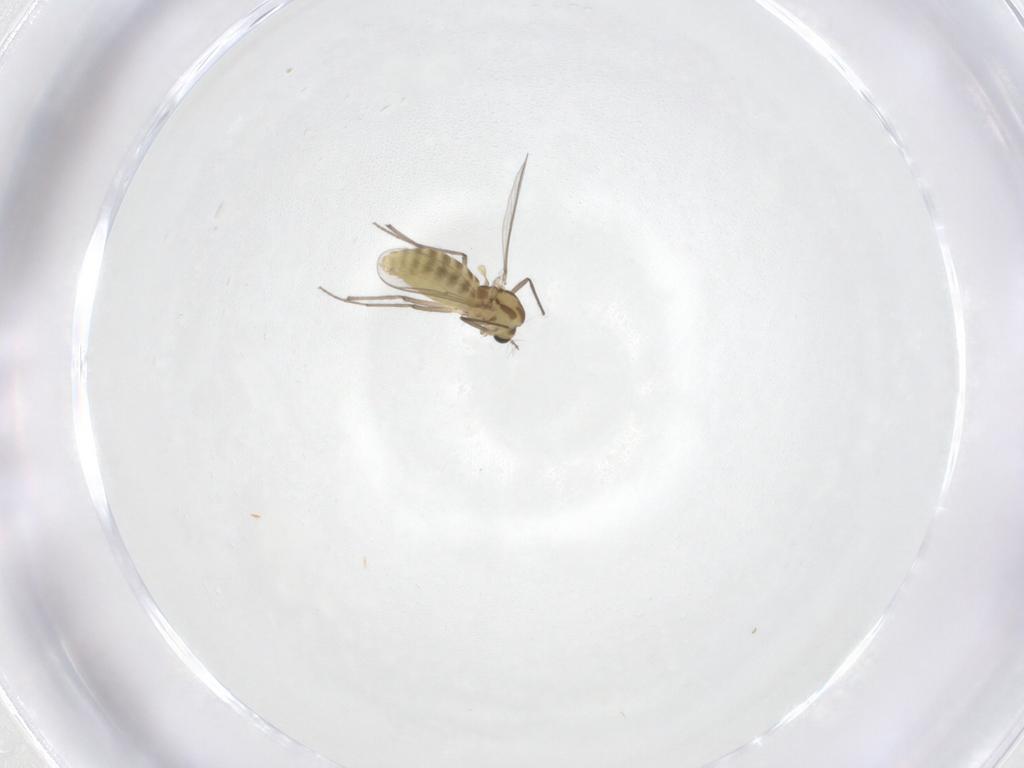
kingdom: Animalia
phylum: Arthropoda
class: Insecta
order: Diptera
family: Chironomidae
